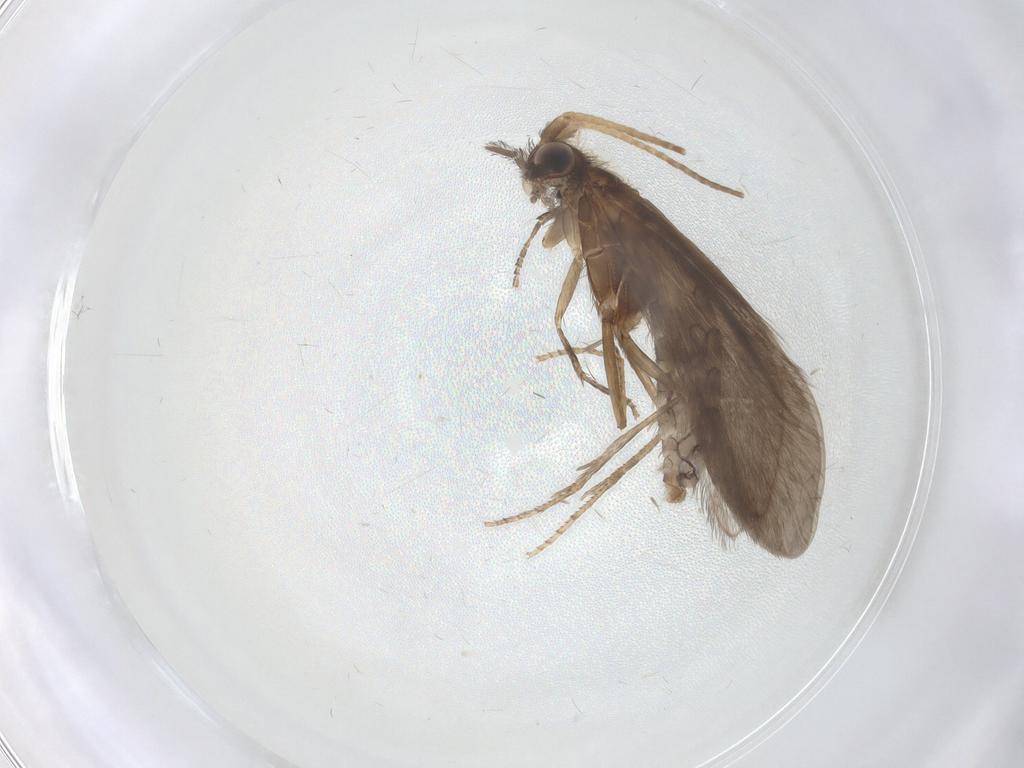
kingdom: Animalia
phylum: Arthropoda
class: Insecta
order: Trichoptera
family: Helicopsychidae
